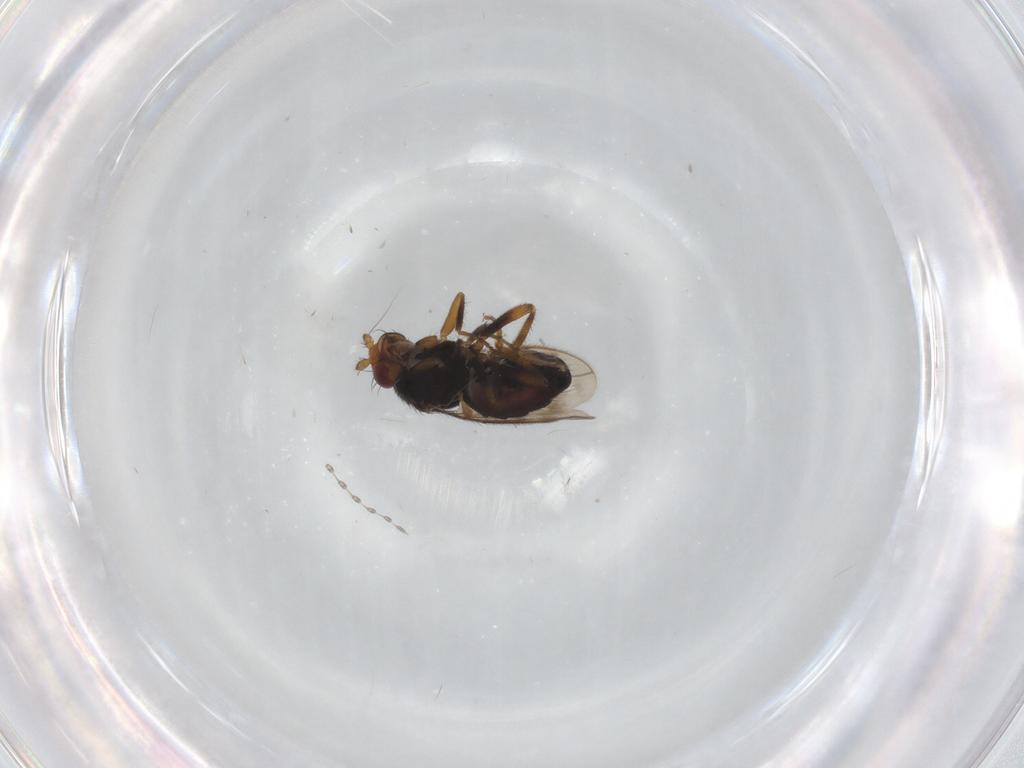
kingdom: Animalia
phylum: Arthropoda
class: Insecta
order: Diptera
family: Sphaeroceridae
